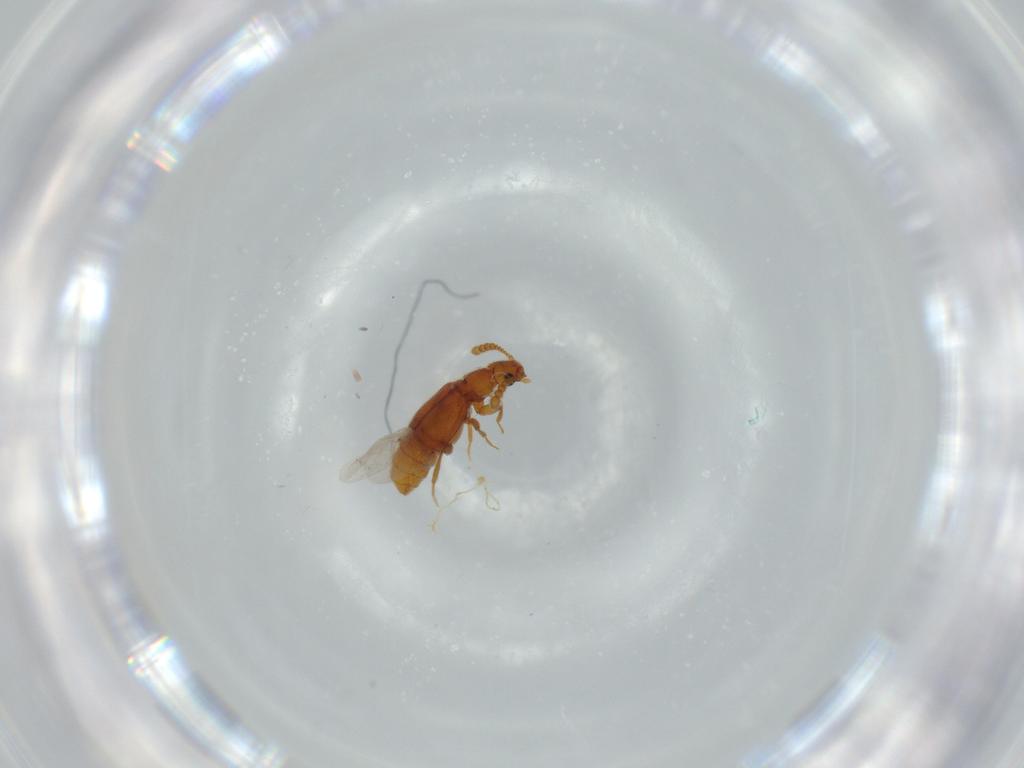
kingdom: Animalia
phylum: Arthropoda
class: Insecta
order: Coleoptera
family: Staphylinidae
